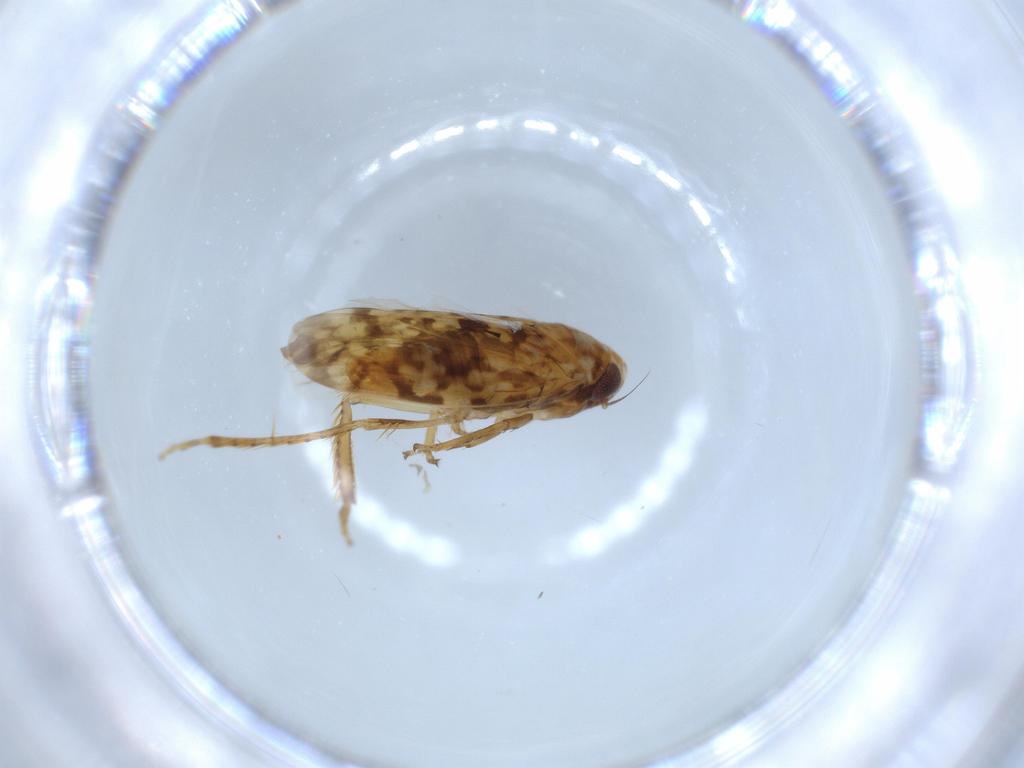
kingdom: Animalia
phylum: Arthropoda
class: Insecta
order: Hemiptera
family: Cicadellidae
